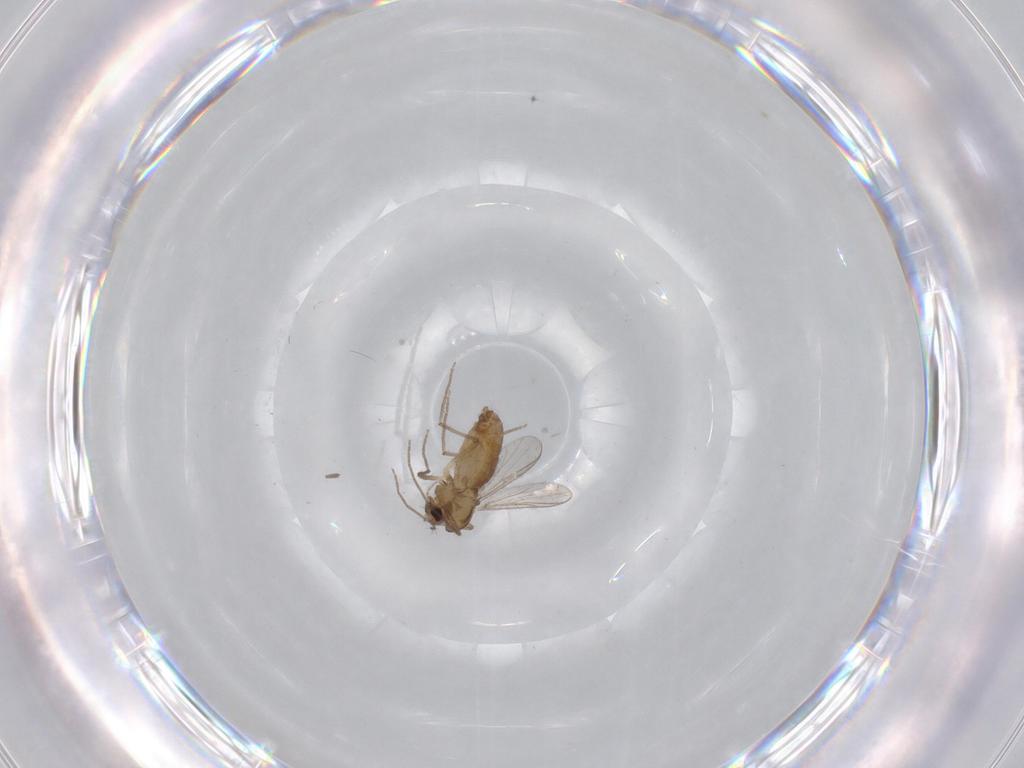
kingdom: Animalia
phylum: Arthropoda
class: Insecta
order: Diptera
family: Chironomidae
